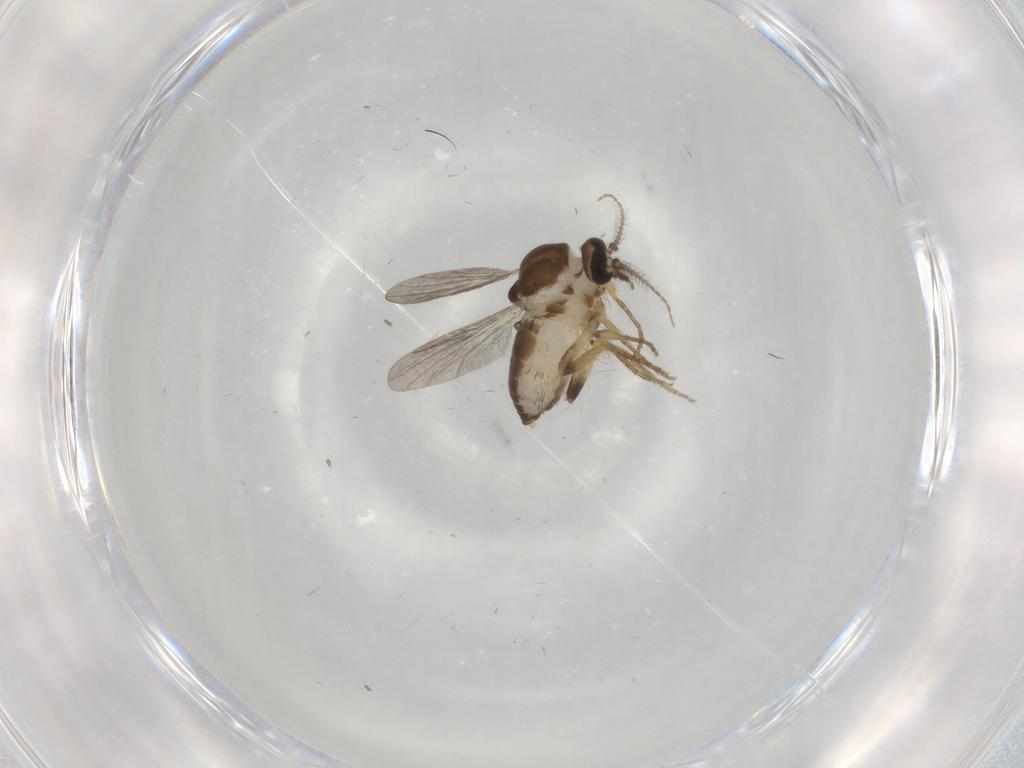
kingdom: Animalia
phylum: Arthropoda
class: Insecta
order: Diptera
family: Ceratopogonidae
